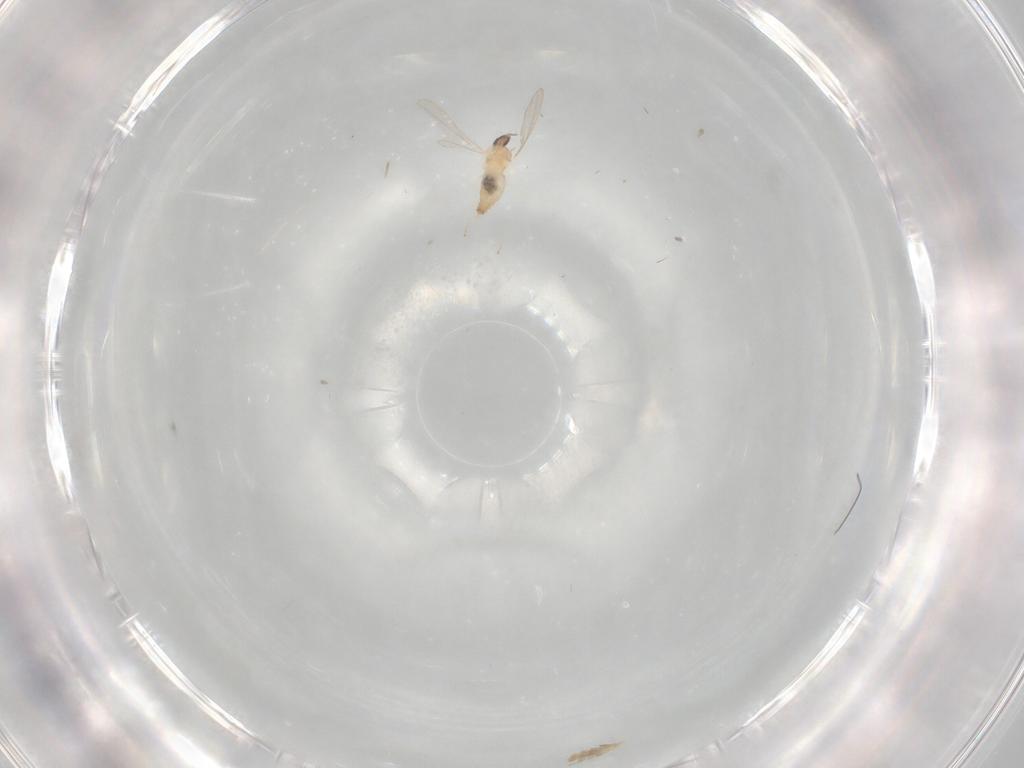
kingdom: Animalia
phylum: Arthropoda
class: Insecta
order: Diptera
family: Cecidomyiidae
